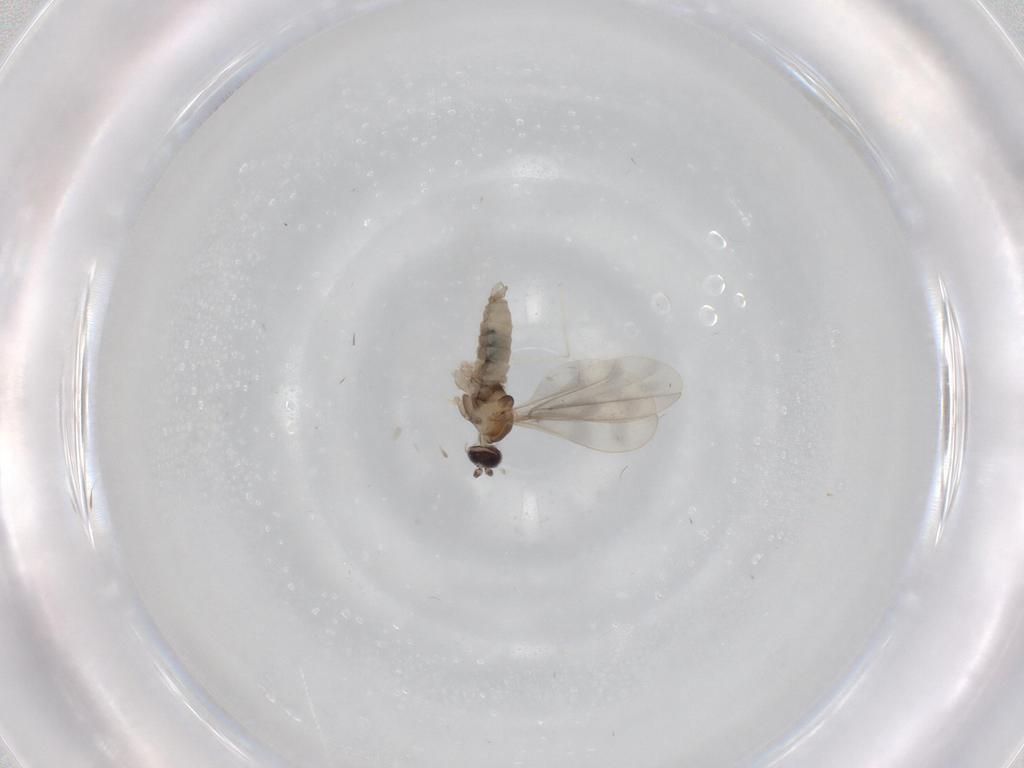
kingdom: Animalia
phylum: Arthropoda
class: Insecta
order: Diptera
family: Cecidomyiidae
